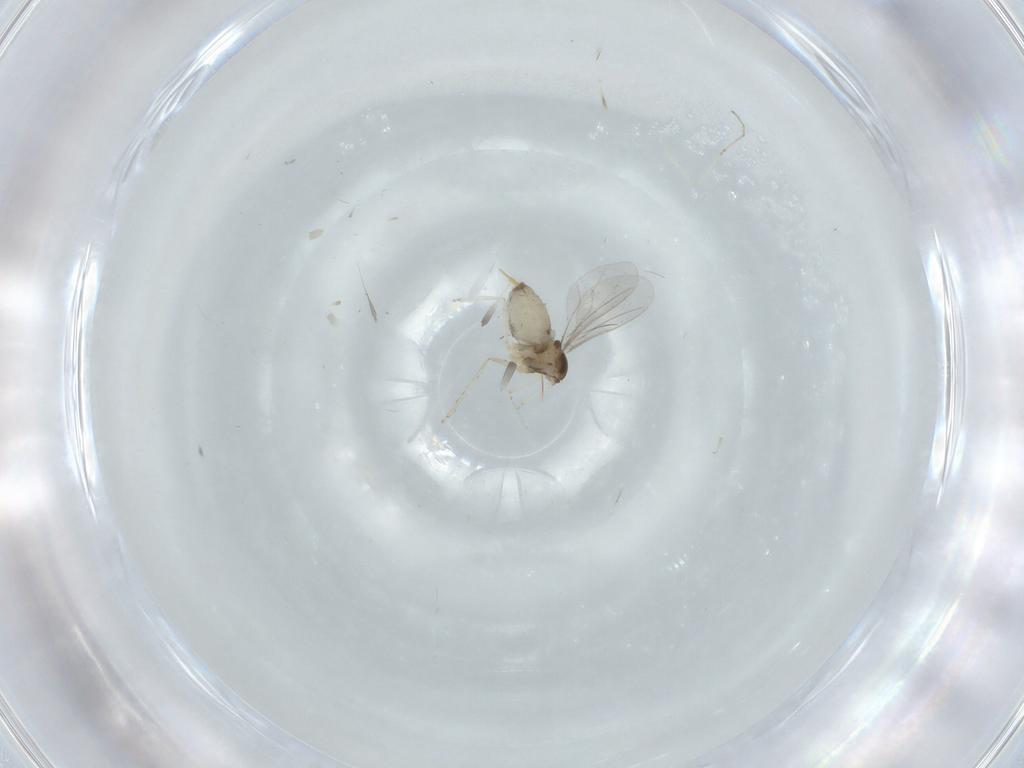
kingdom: Animalia
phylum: Arthropoda
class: Insecta
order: Diptera
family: Cecidomyiidae
